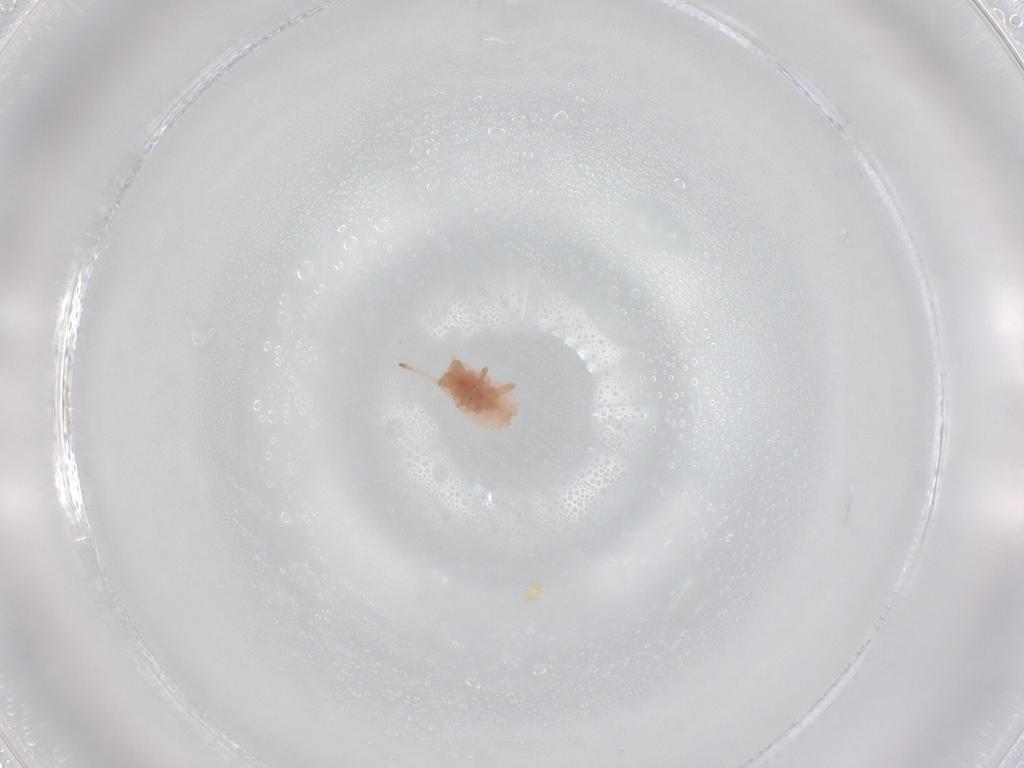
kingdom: Animalia
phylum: Arthropoda
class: Insecta
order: Hemiptera
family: Coccoidea_incertae_sedis
